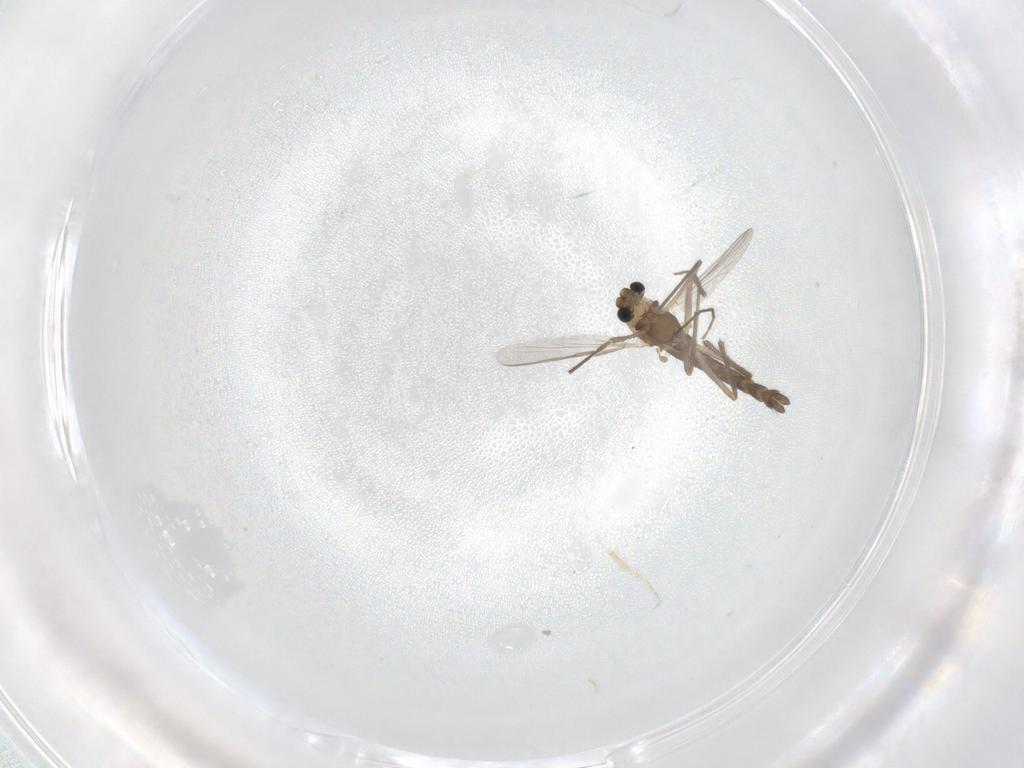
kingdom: Animalia
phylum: Arthropoda
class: Insecta
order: Diptera
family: Chironomidae
